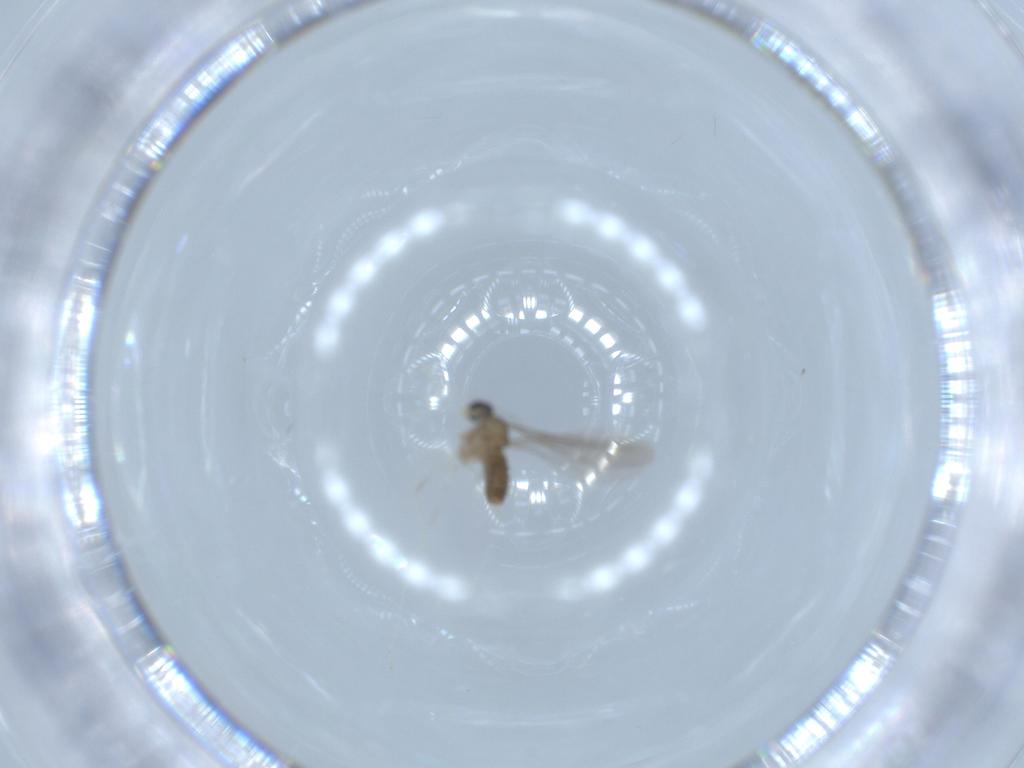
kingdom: Animalia
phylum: Arthropoda
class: Insecta
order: Diptera
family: Cecidomyiidae
